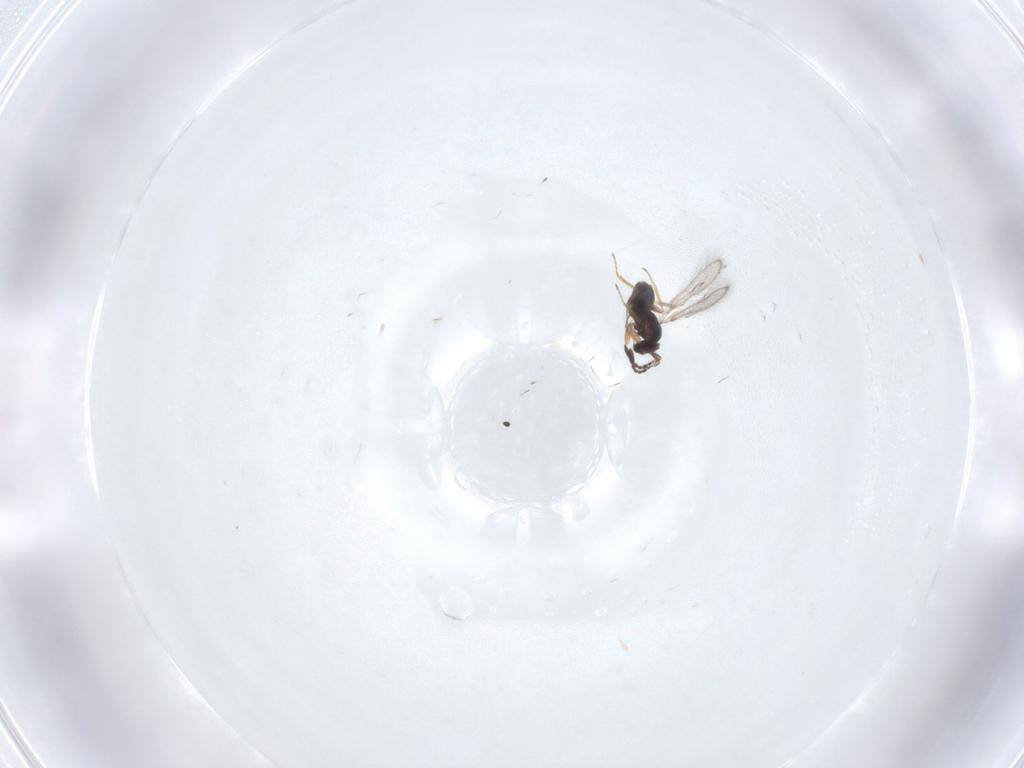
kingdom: Animalia
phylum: Arthropoda
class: Insecta
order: Hymenoptera
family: Mymaridae
